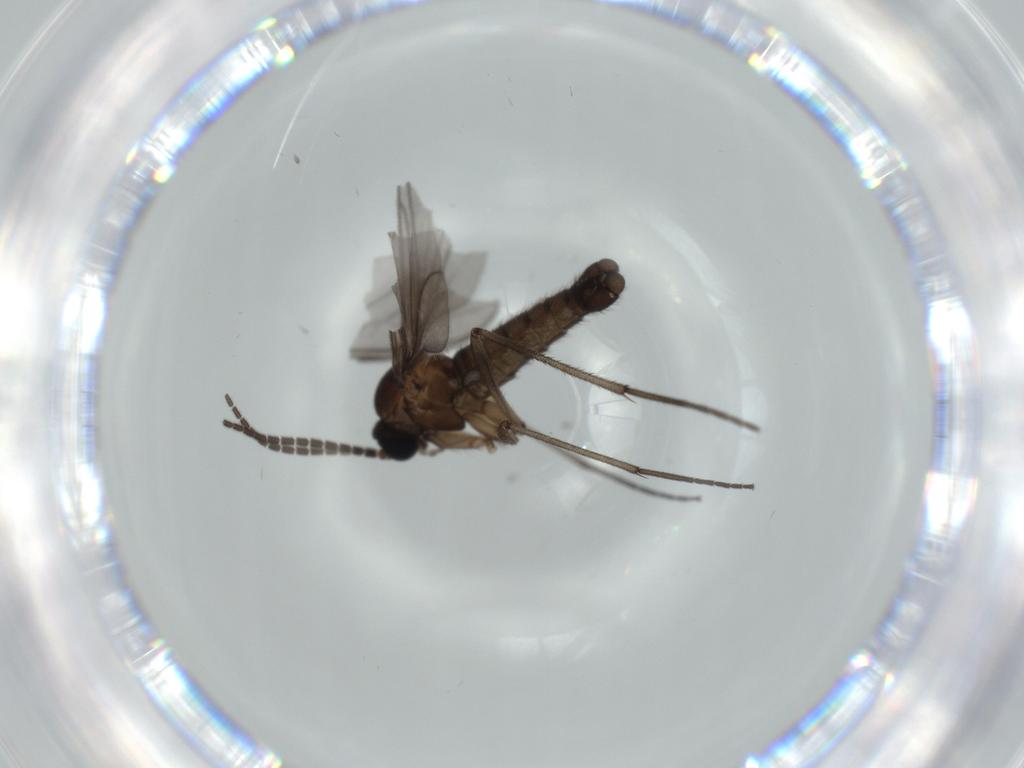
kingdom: Animalia
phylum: Arthropoda
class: Insecta
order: Diptera
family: Sciaridae
